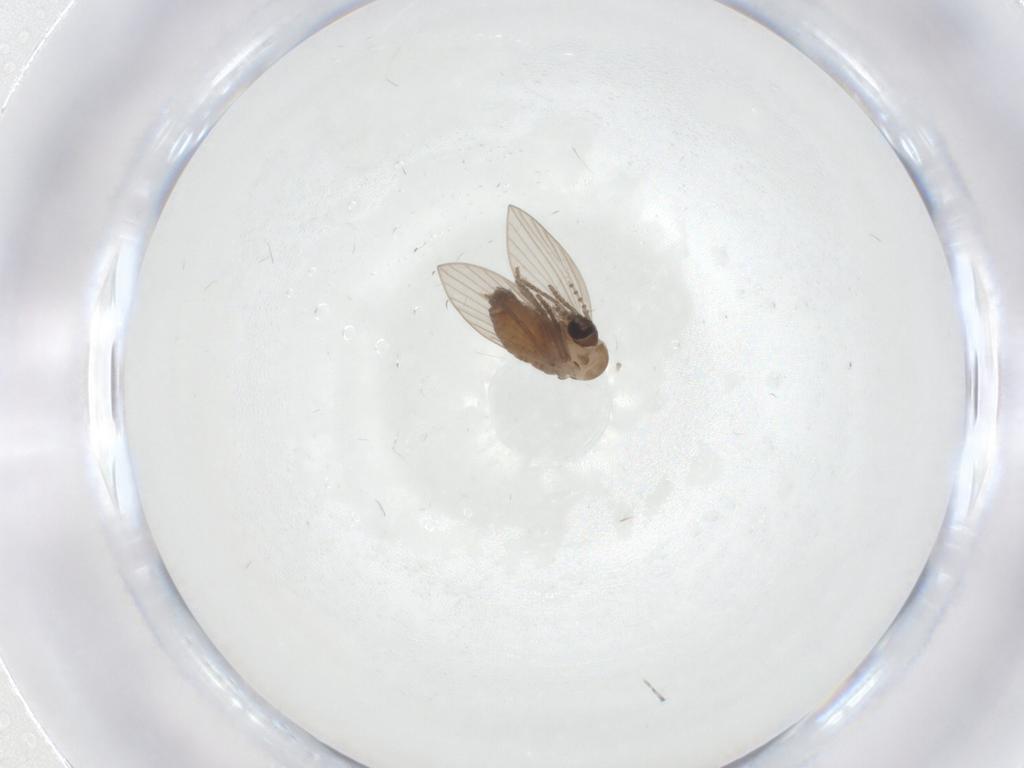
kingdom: Animalia
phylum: Arthropoda
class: Insecta
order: Diptera
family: Psychodidae
